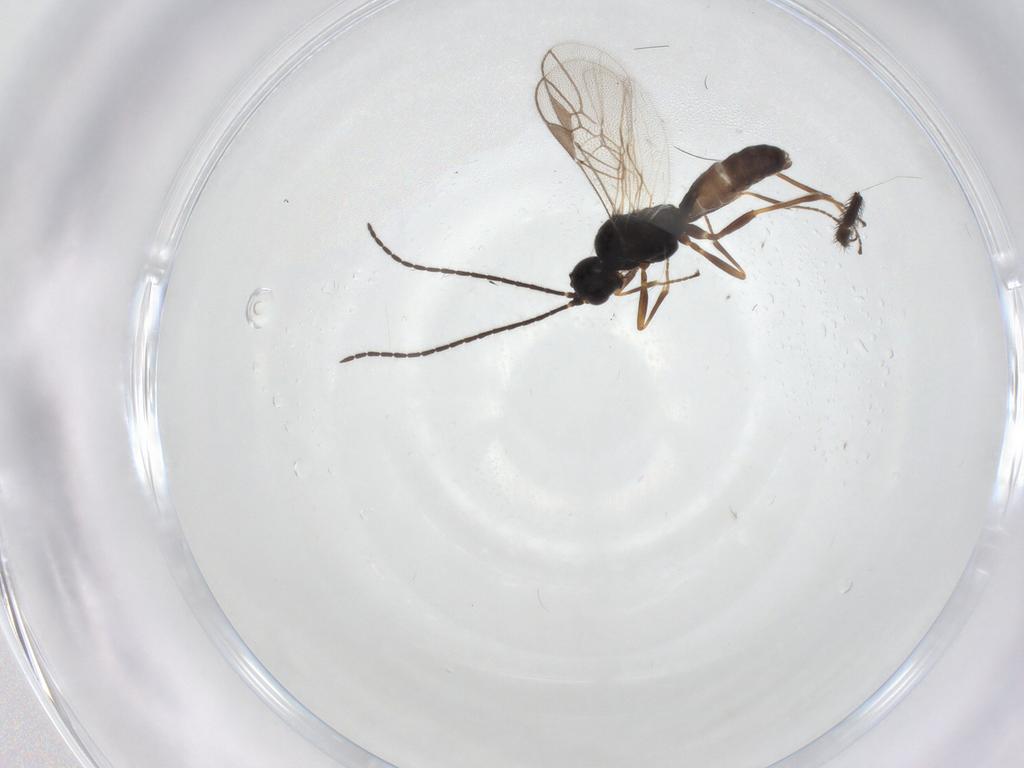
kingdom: Animalia
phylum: Arthropoda
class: Insecta
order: Hymenoptera
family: Braconidae
